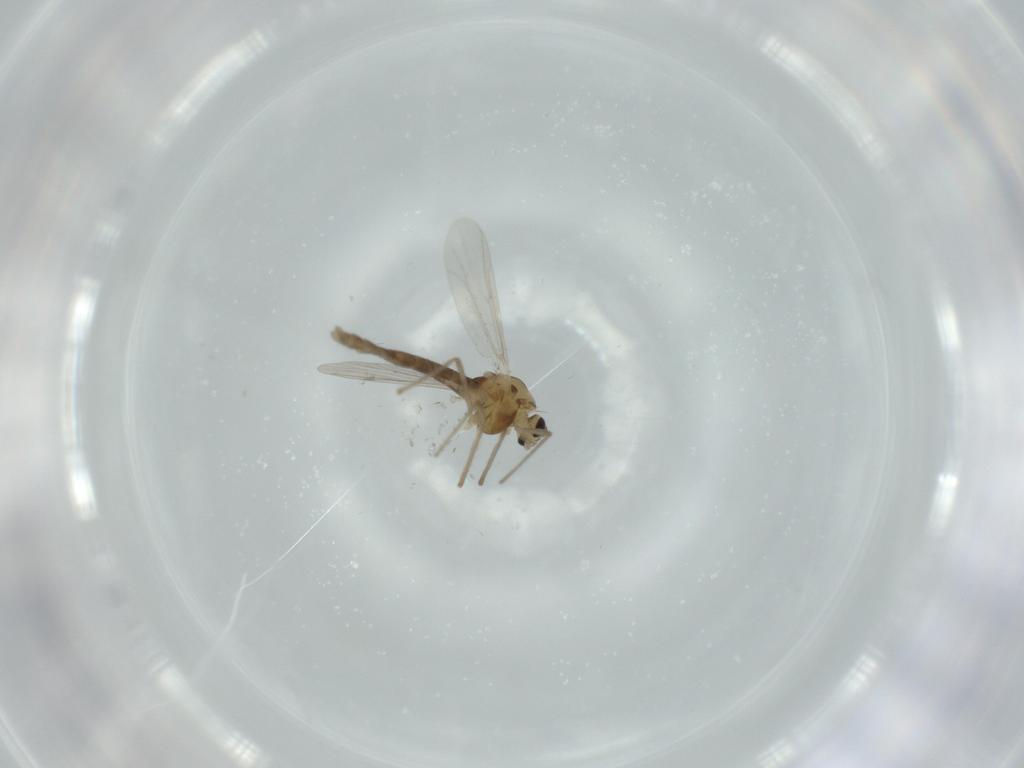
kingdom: Animalia
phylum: Arthropoda
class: Insecta
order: Diptera
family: Chironomidae
